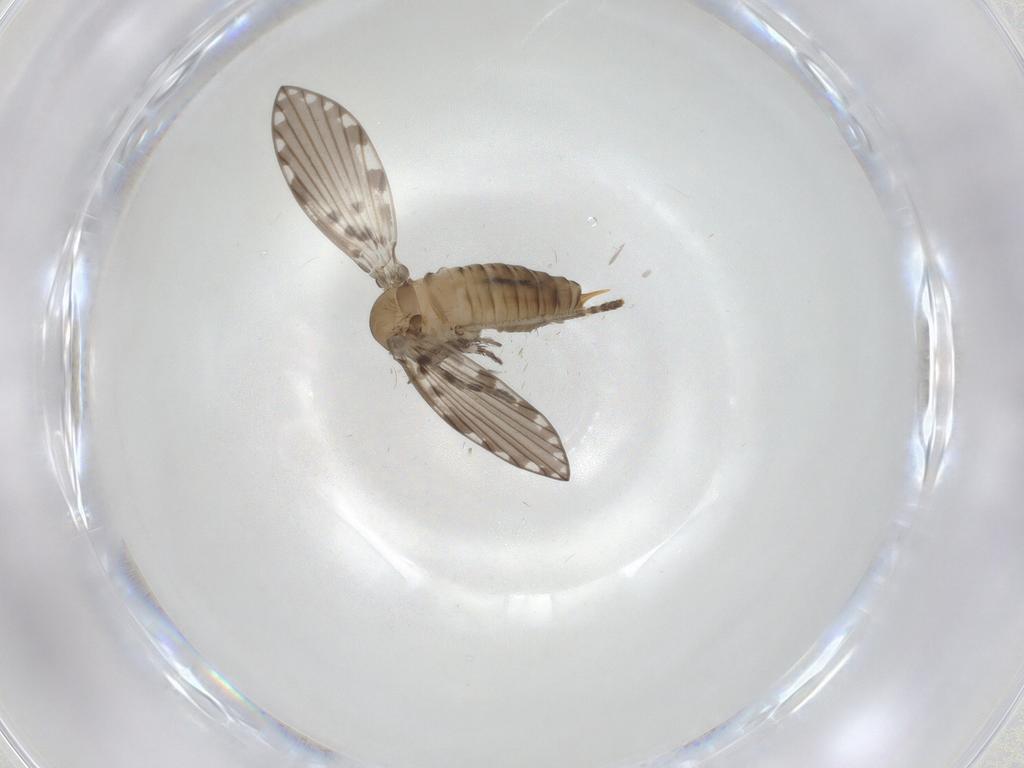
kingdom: Animalia
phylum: Arthropoda
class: Insecta
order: Diptera
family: Psychodidae
